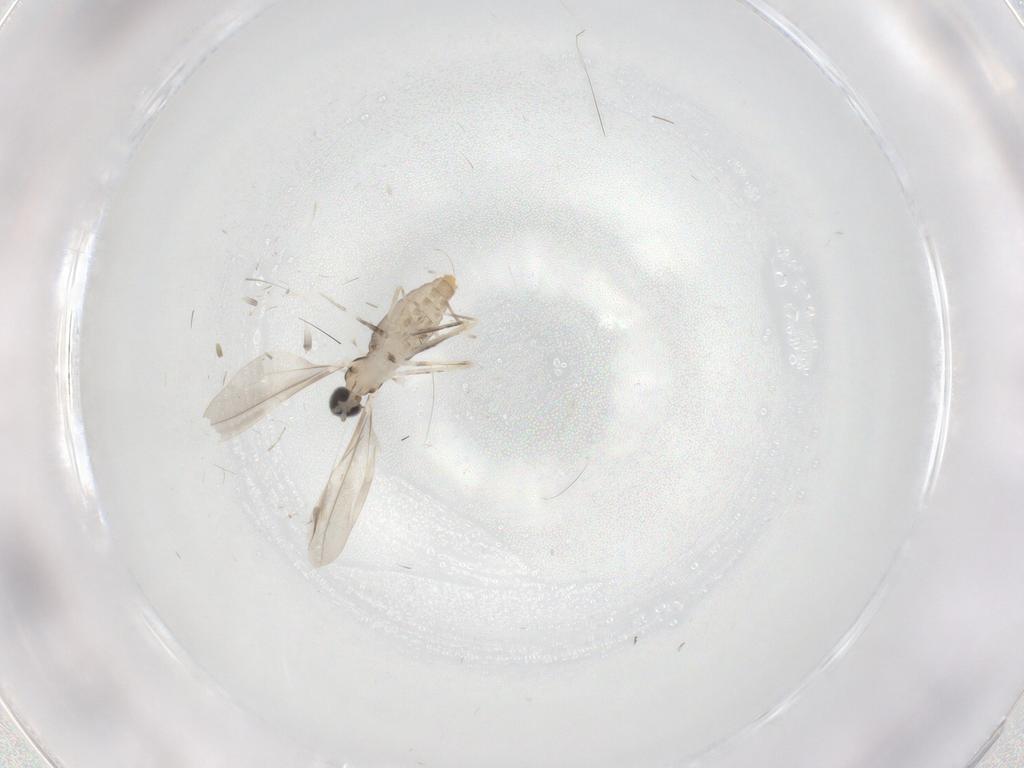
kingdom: Animalia
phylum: Arthropoda
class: Insecta
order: Diptera
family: Cecidomyiidae
